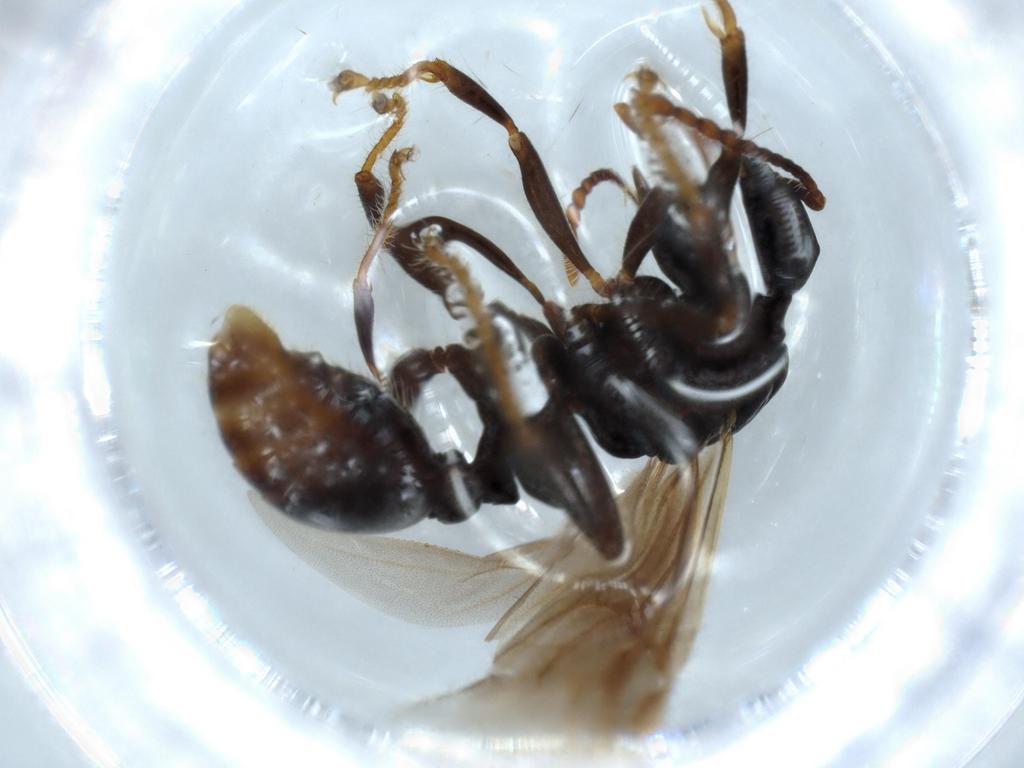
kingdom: Animalia
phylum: Arthropoda
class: Insecta
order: Hymenoptera
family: Formicidae
